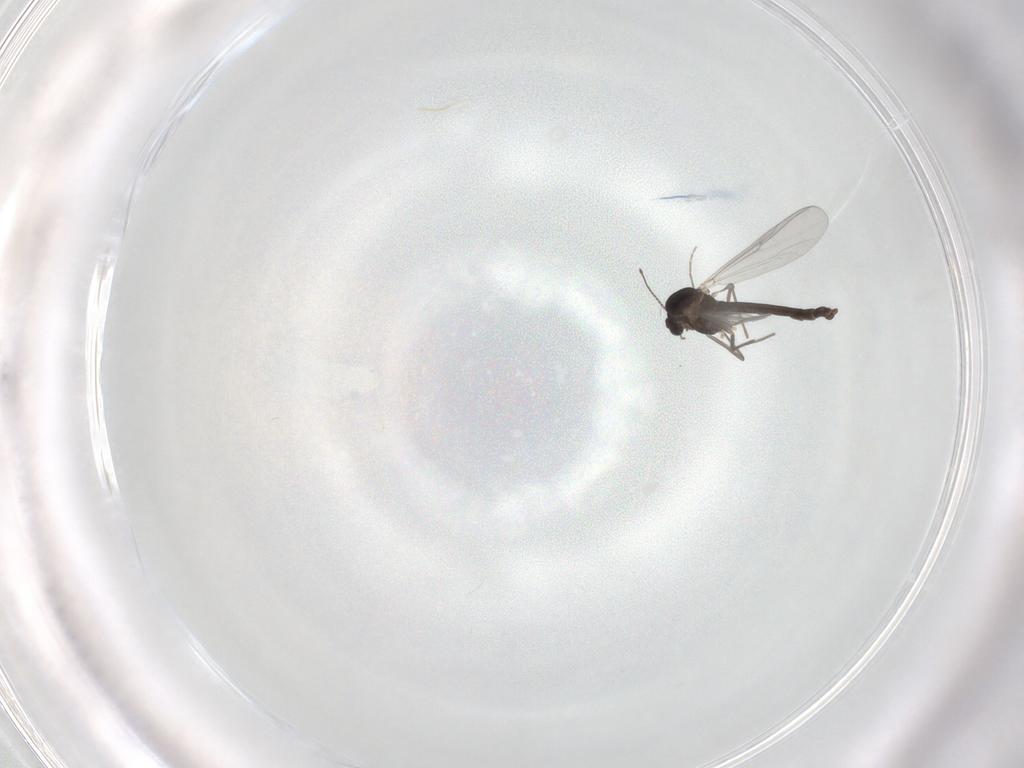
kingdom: Animalia
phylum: Arthropoda
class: Insecta
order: Diptera
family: Chironomidae
